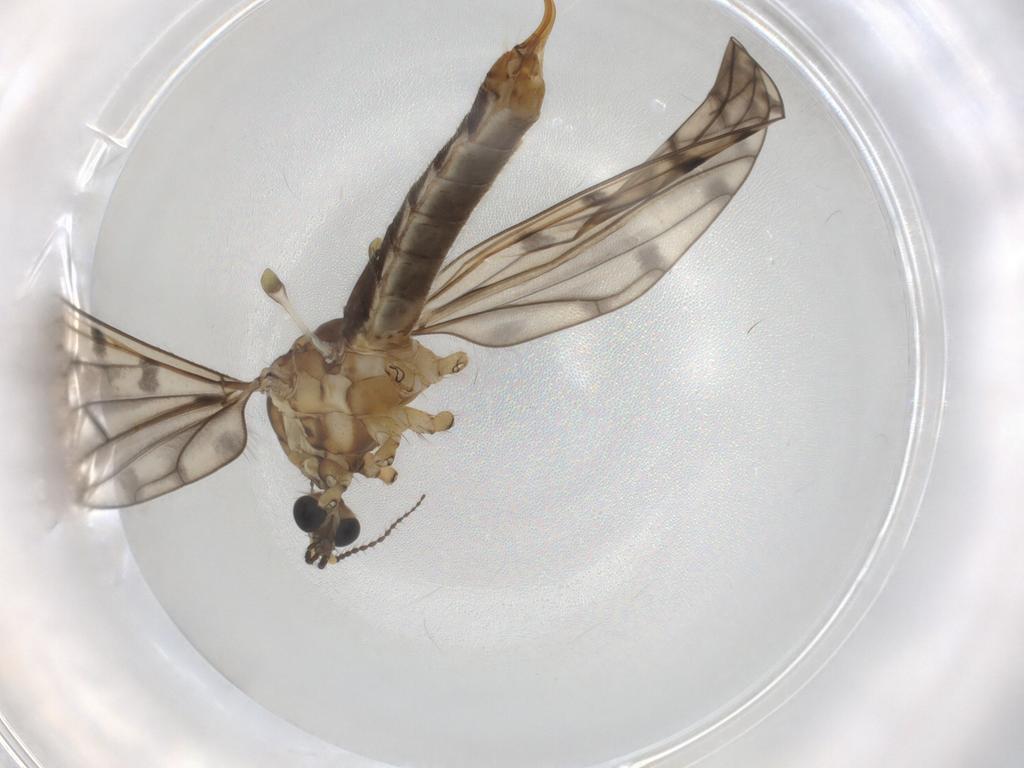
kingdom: Animalia
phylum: Arthropoda
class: Insecta
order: Diptera
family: Limoniidae
